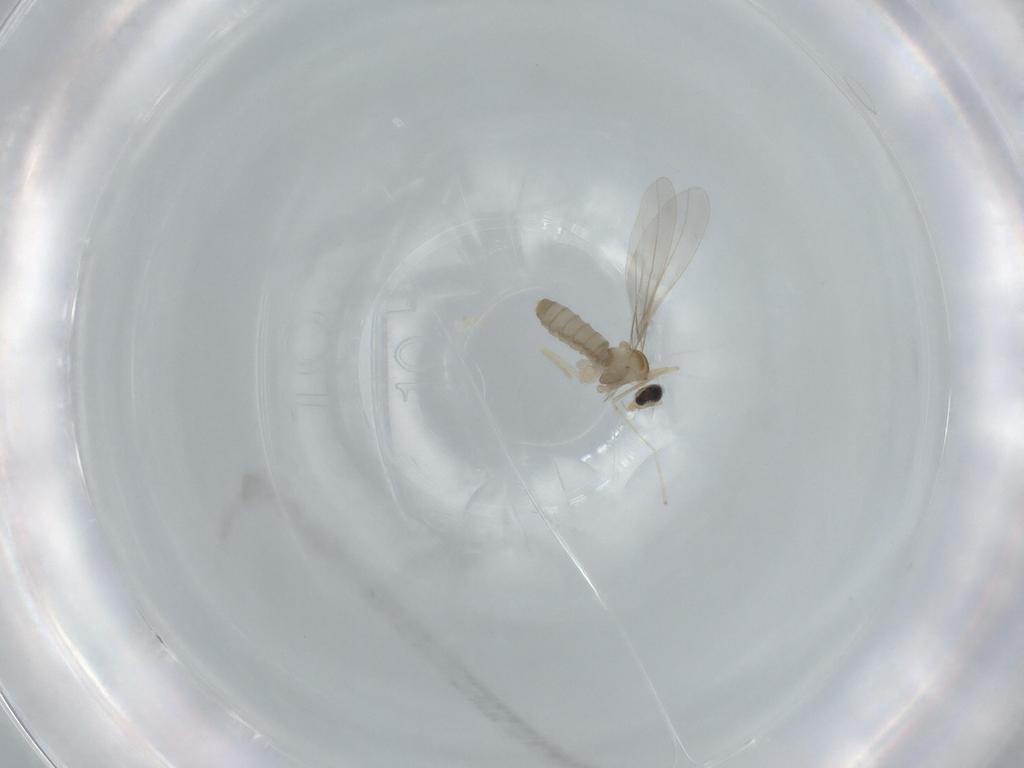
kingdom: Animalia
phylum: Arthropoda
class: Insecta
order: Diptera
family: Cecidomyiidae
